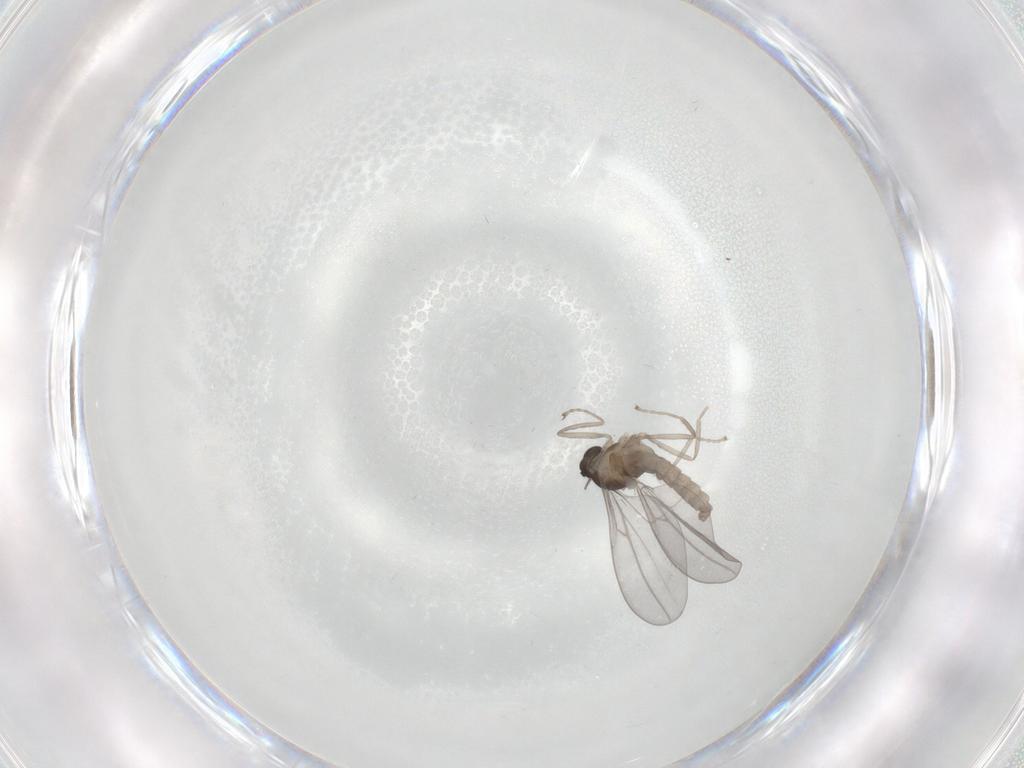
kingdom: Animalia
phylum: Arthropoda
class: Insecta
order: Diptera
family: Cecidomyiidae
